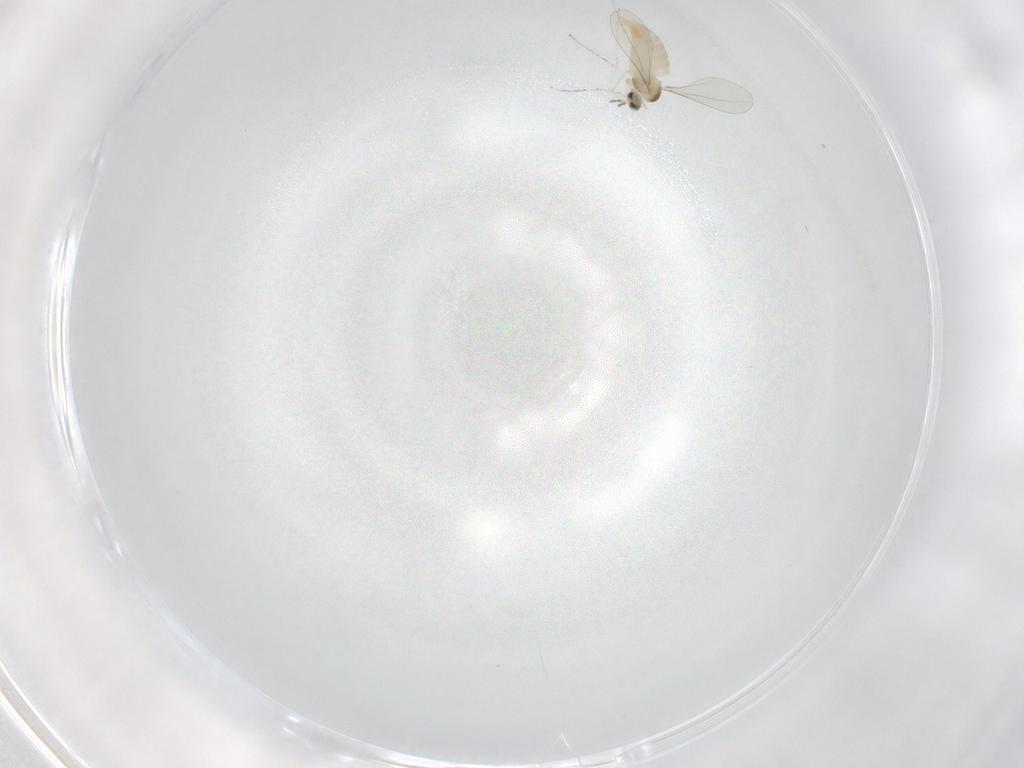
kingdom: Animalia
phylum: Arthropoda
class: Insecta
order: Diptera
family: Cecidomyiidae
